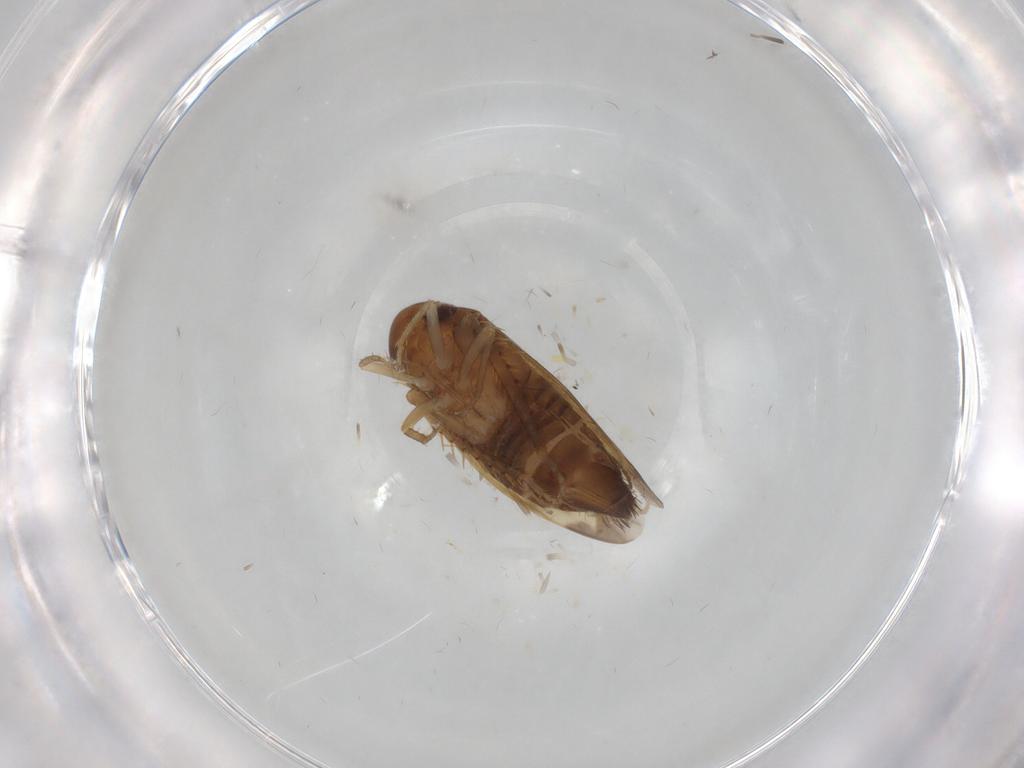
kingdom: Animalia
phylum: Arthropoda
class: Insecta
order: Hemiptera
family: Cicadellidae
